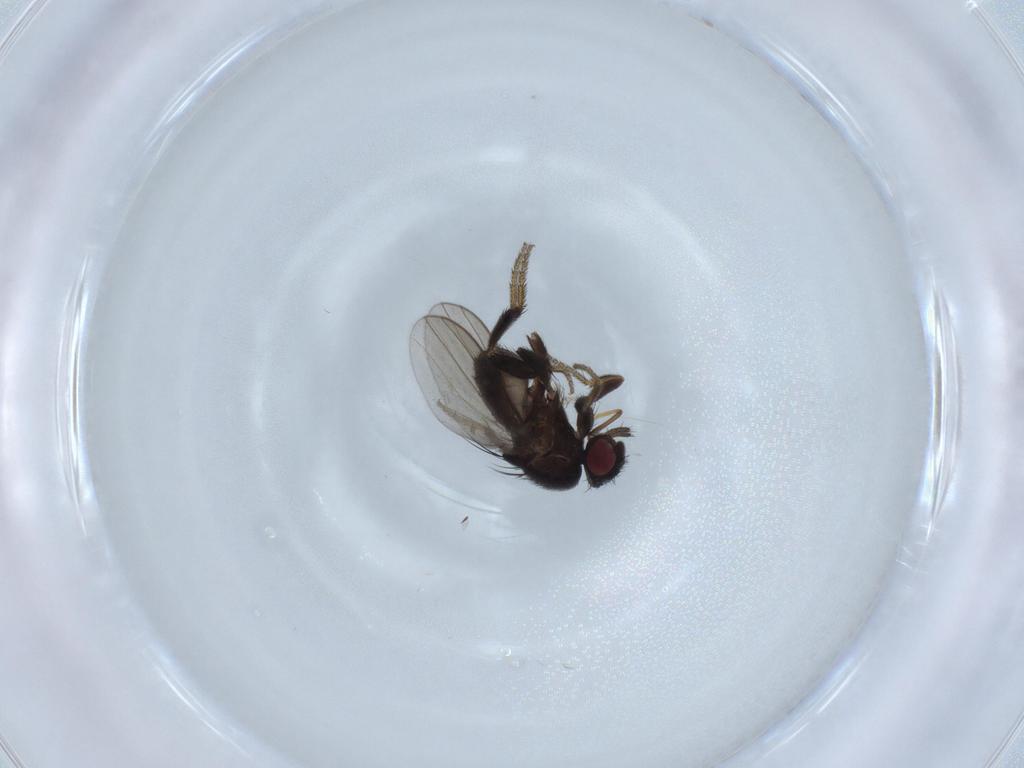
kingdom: Animalia
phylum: Arthropoda
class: Insecta
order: Diptera
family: Milichiidae
